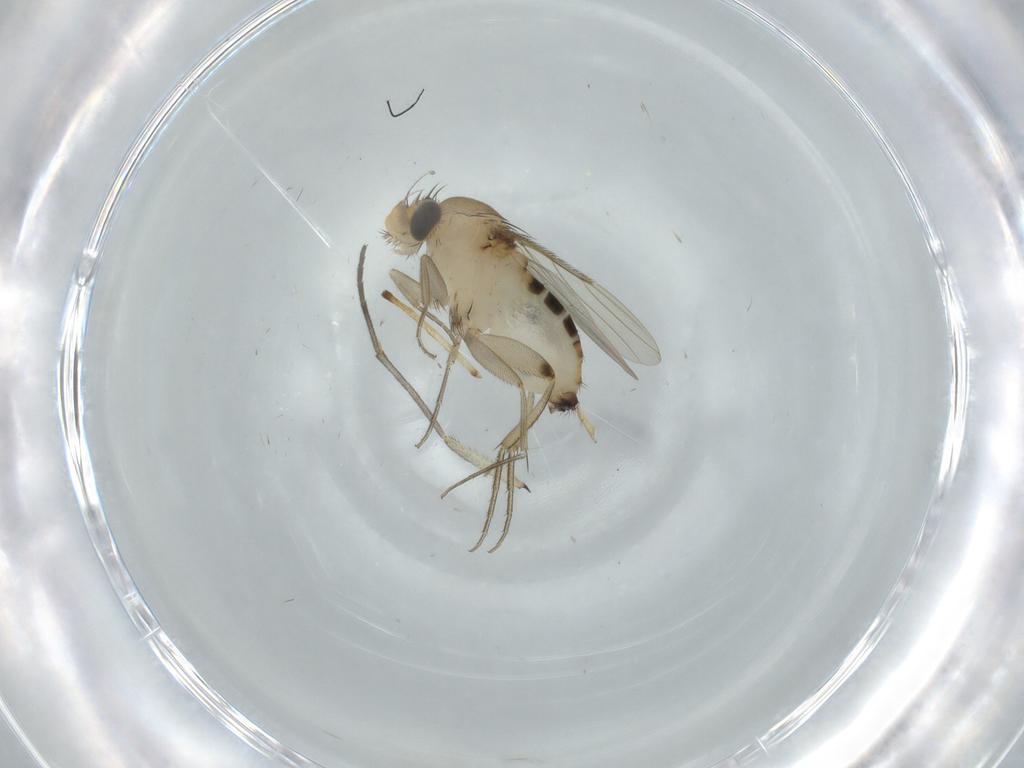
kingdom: Animalia
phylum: Arthropoda
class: Insecta
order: Diptera
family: Phoridae
